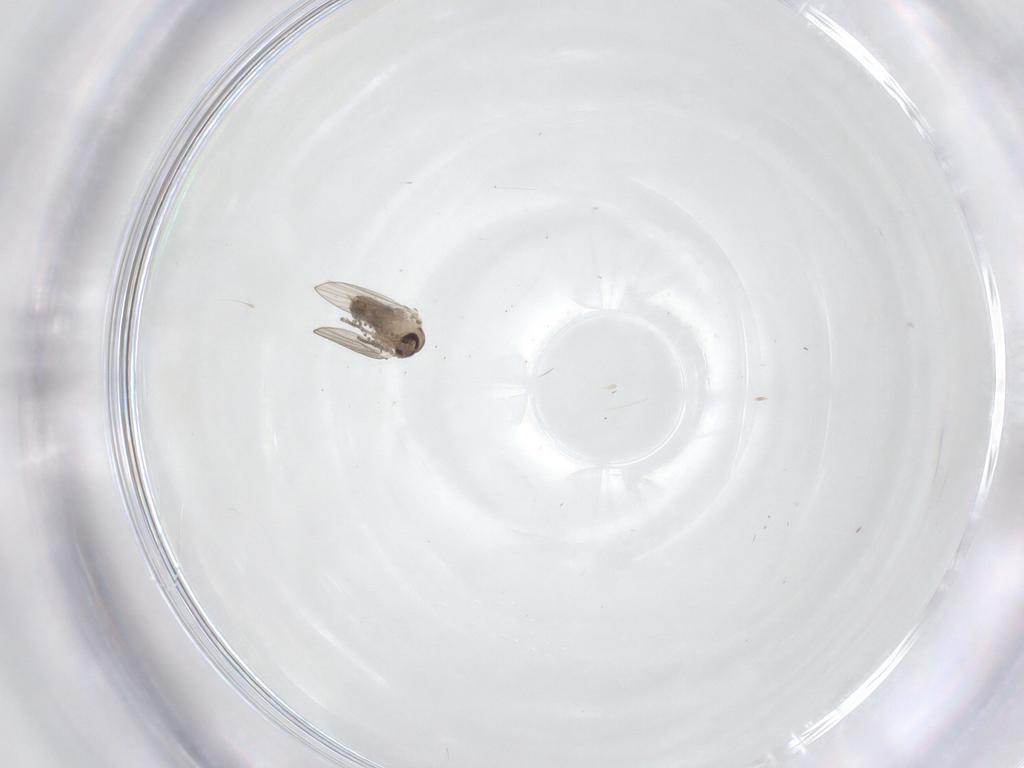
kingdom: Animalia
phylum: Arthropoda
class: Insecta
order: Diptera
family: Psychodidae
